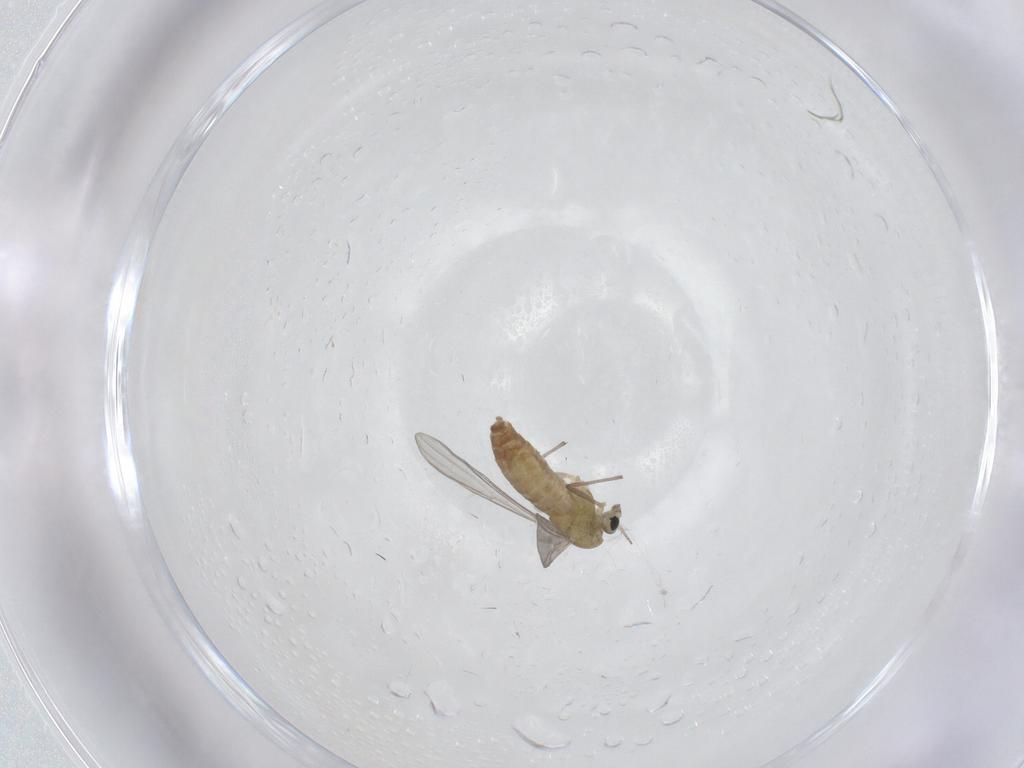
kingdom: Animalia
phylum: Arthropoda
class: Insecta
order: Diptera
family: Chironomidae
